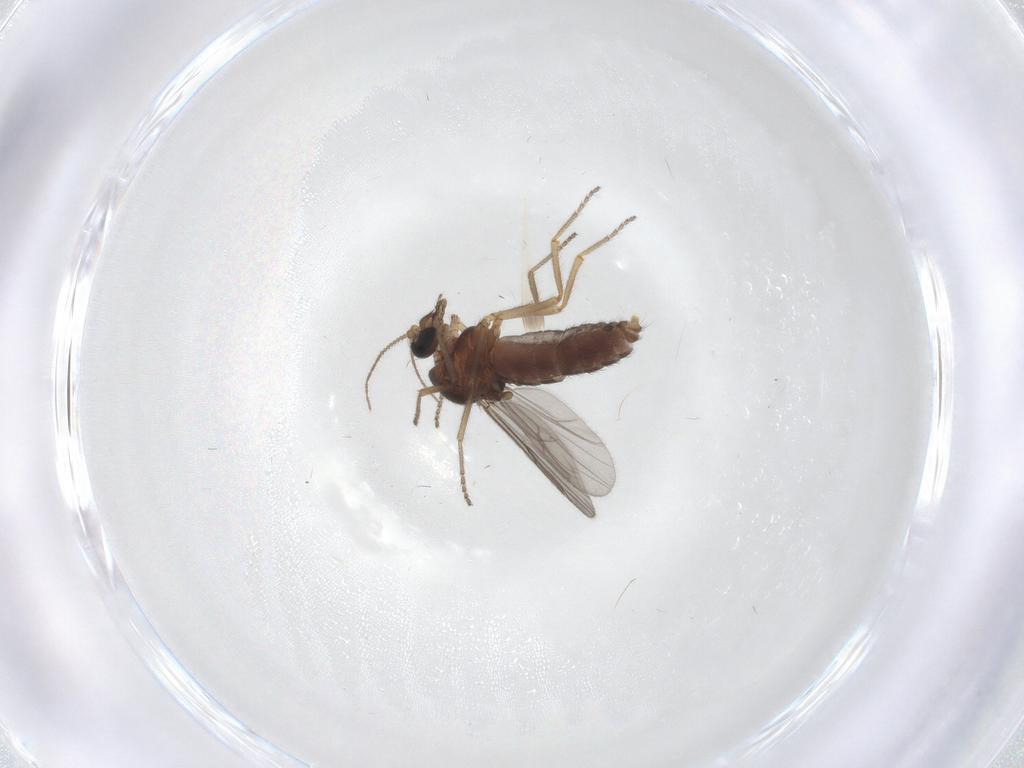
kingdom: Animalia
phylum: Arthropoda
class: Insecta
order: Diptera
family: Ceratopogonidae
